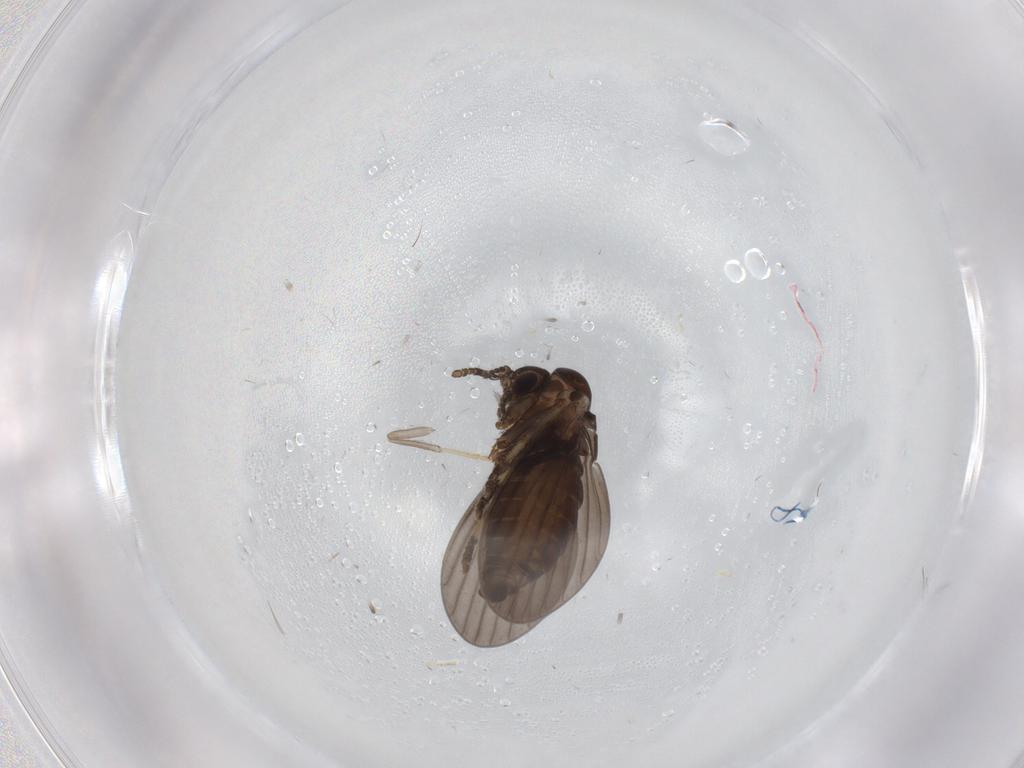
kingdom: Animalia
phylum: Arthropoda
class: Insecta
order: Diptera
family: Psychodidae
